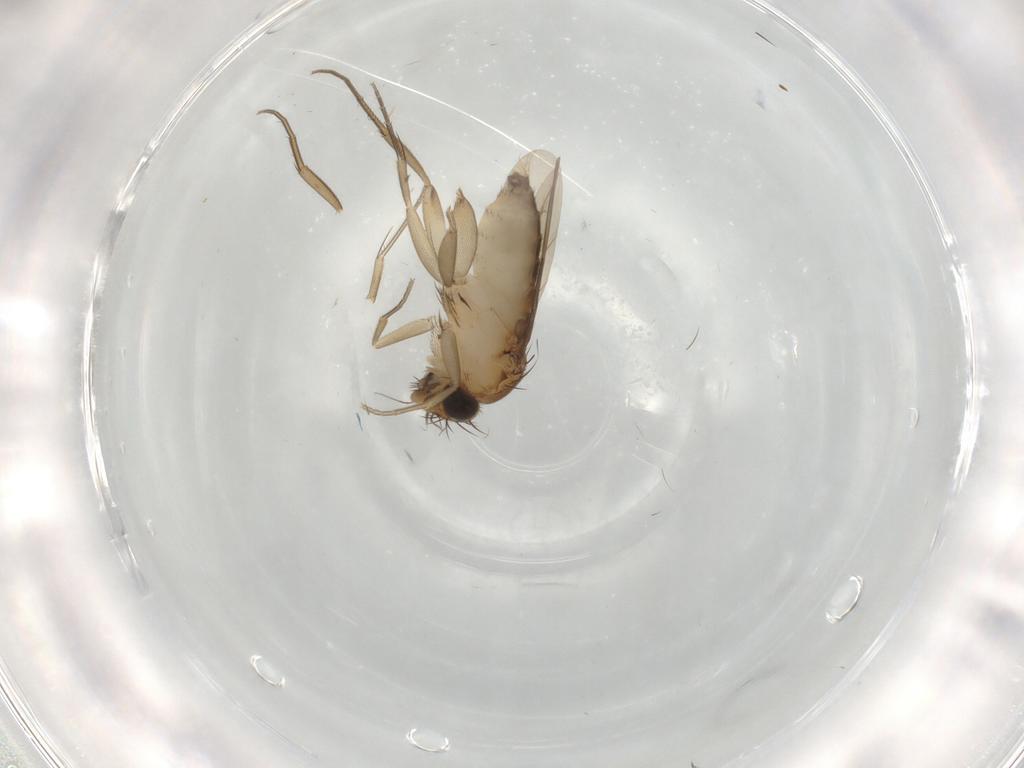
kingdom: Animalia
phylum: Arthropoda
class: Insecta
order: Diptera
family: Phoridae
